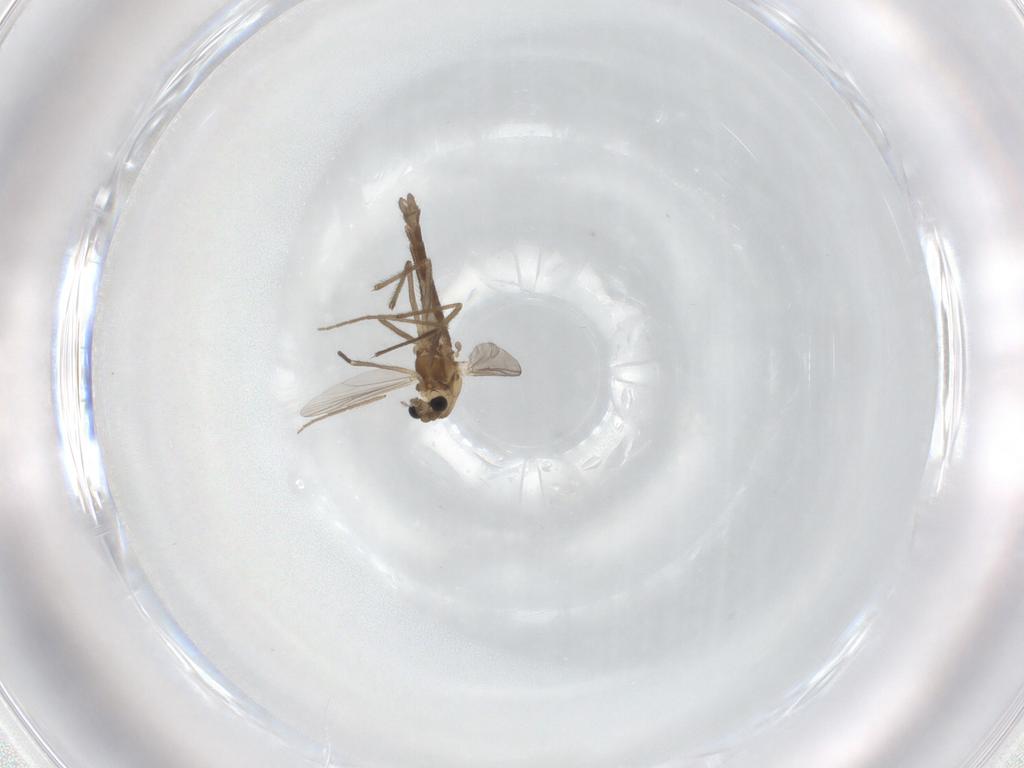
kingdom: Animalia
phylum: Arthropoda
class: Insecta
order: Diptera
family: Chironomidae
